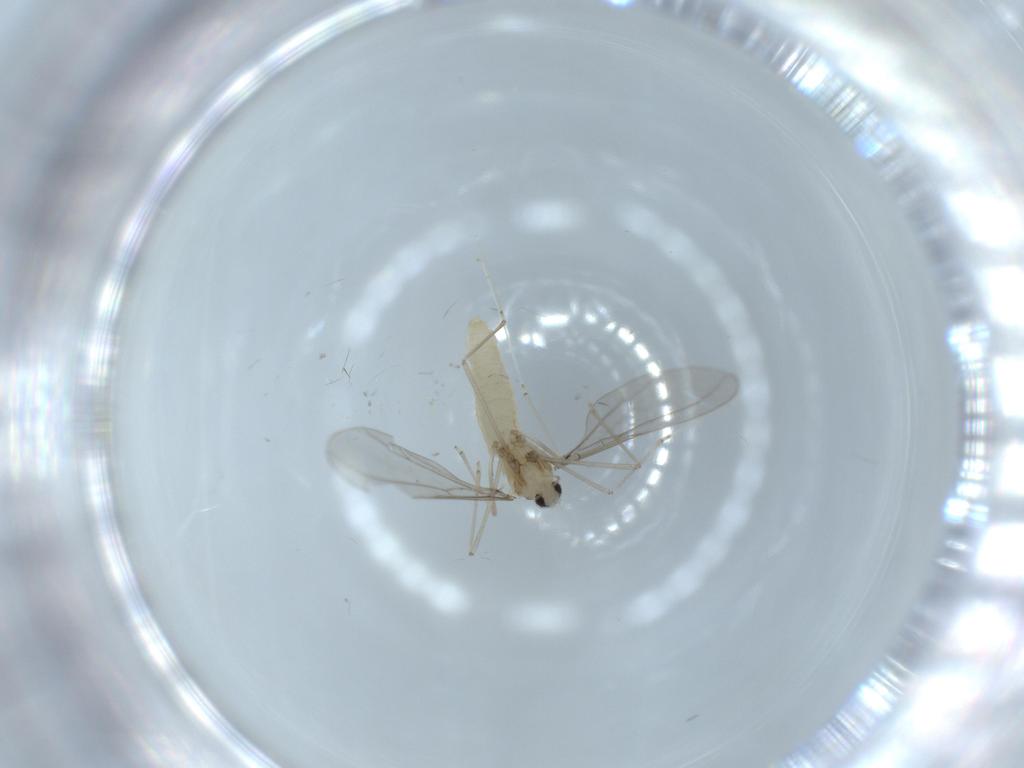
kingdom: Animalia
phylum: Arthropoda
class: Insecta
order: Diptera
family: Cecidomyiidae
